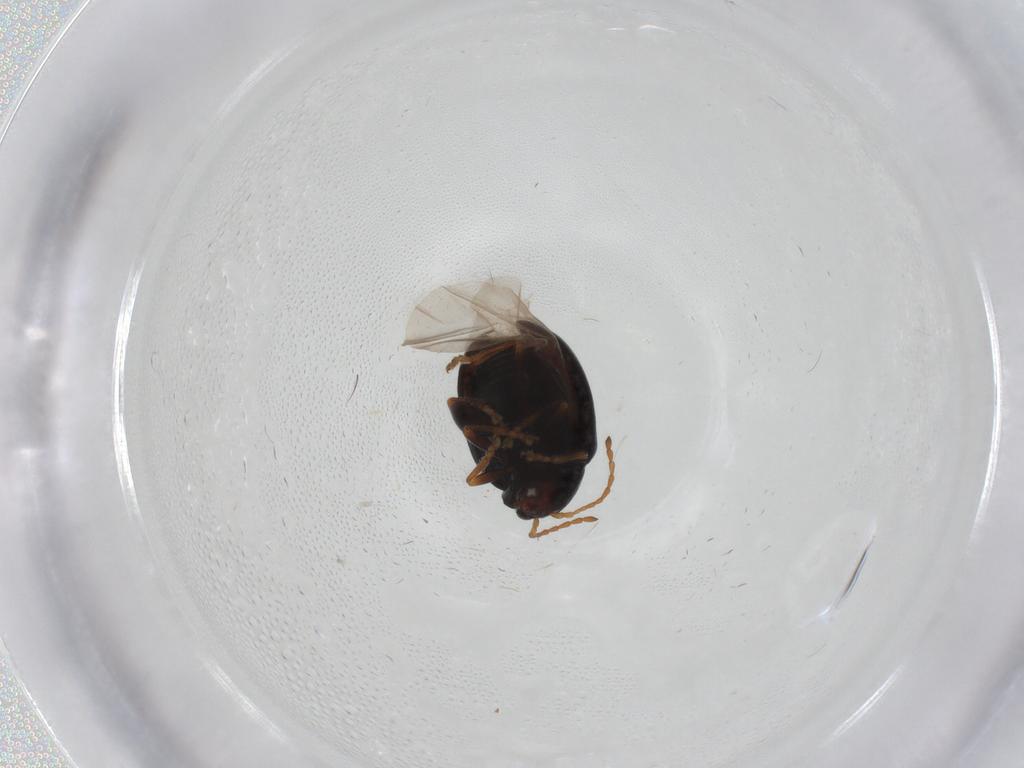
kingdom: Animalia
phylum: Arthropoda
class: Insecta
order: Coleoptera
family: Chrysomelidae
